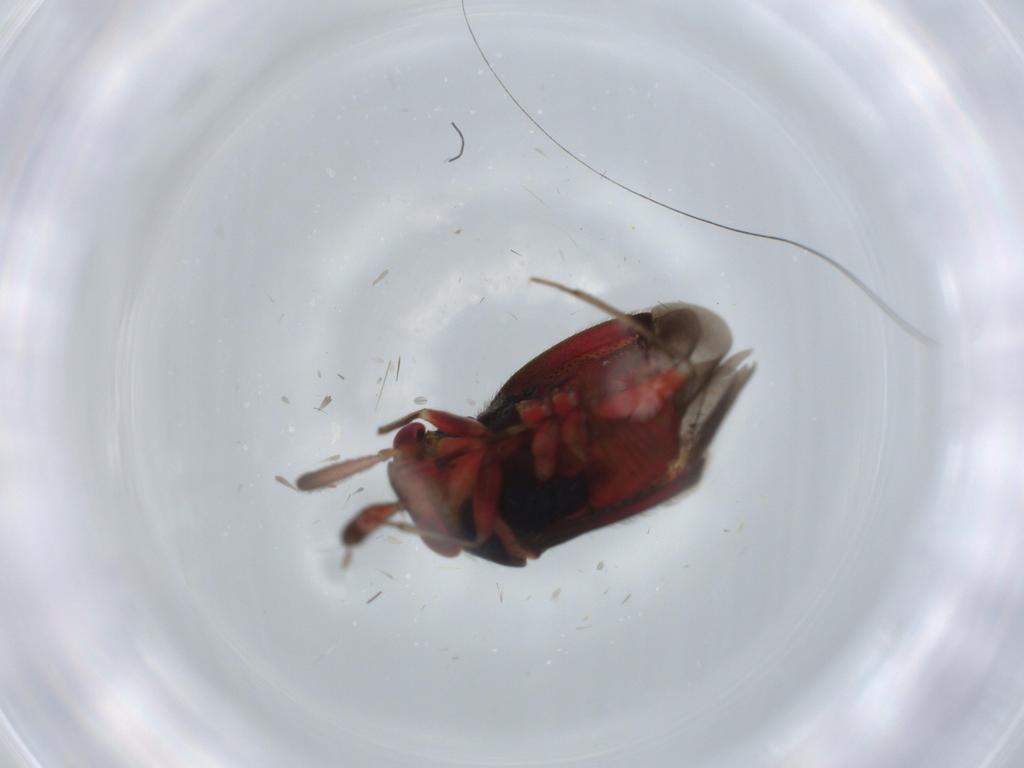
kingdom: Animalia
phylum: Arthropoda
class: Insecta
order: Hemiptera
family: Miridae
